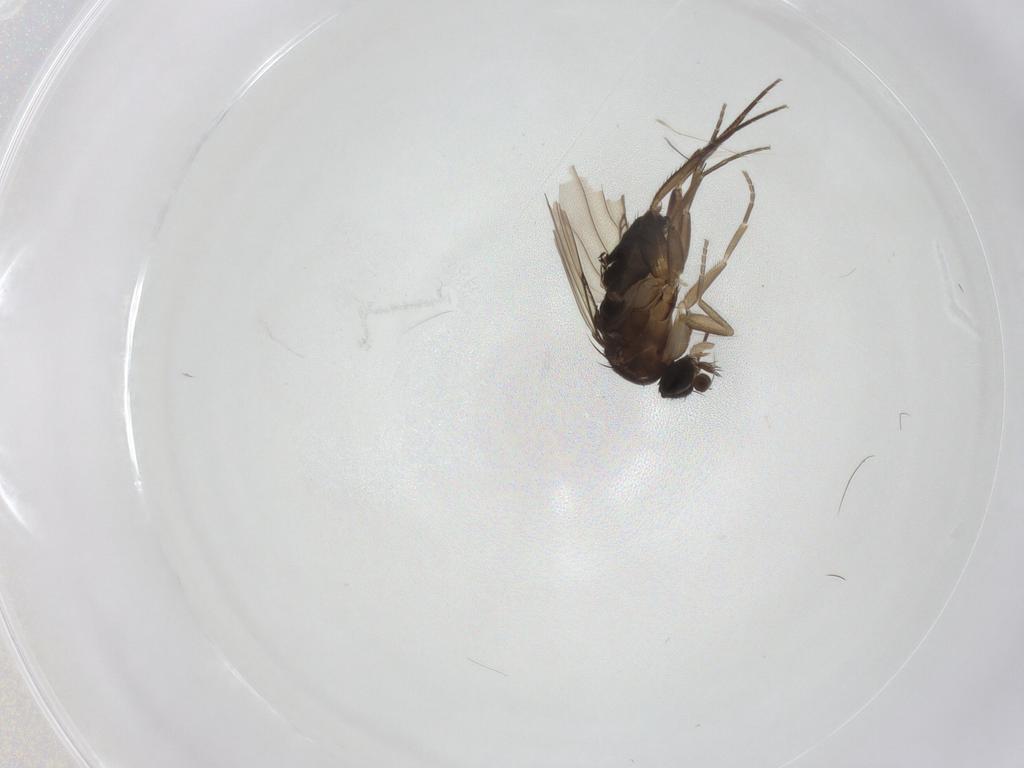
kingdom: Animalia
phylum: Arthropoda
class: Insecta
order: Diptera
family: Phoridae
